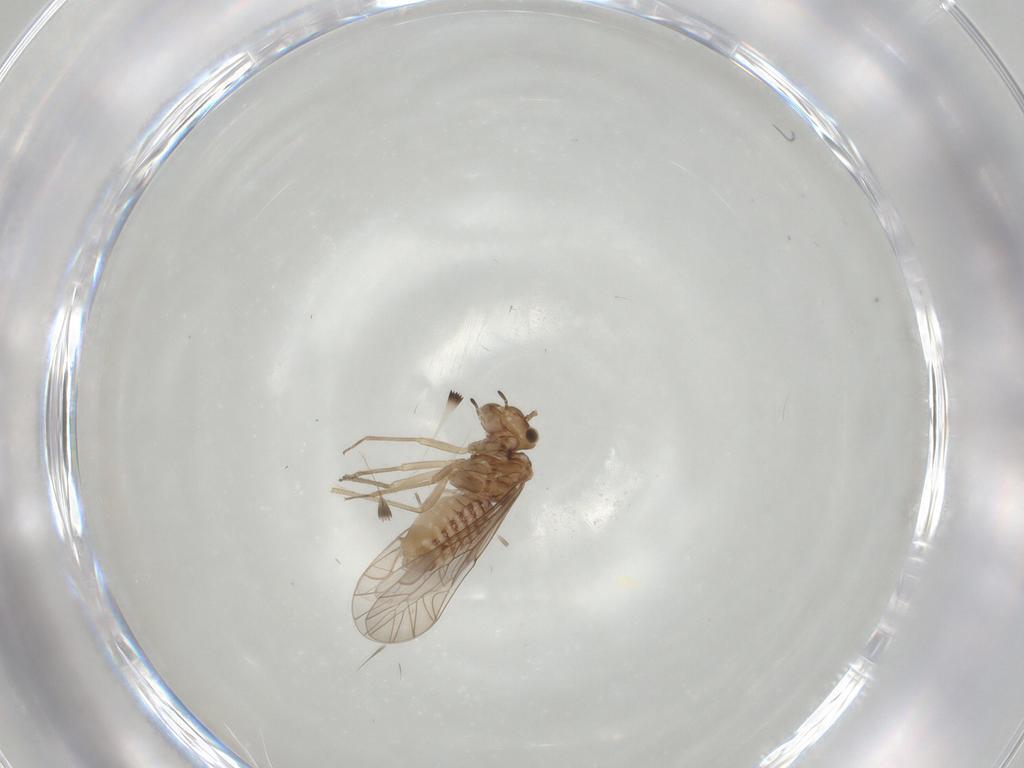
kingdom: Animalia
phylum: Arthropoda
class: Insecta
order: Psocodea
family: Lachesillidae
